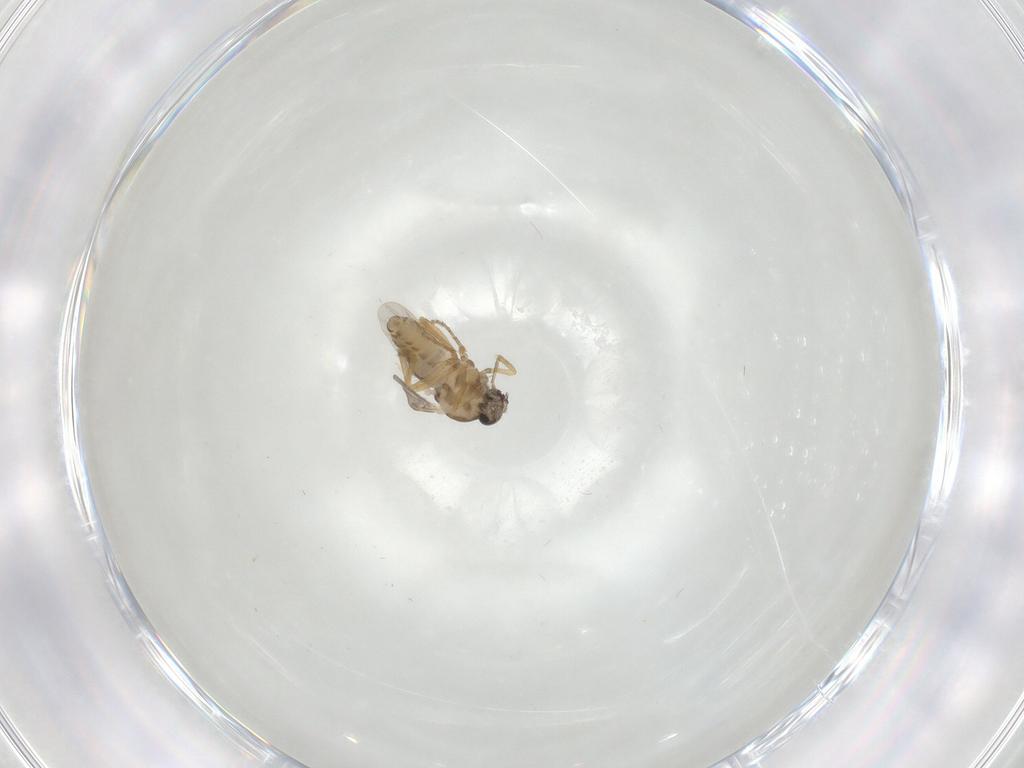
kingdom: Animalia
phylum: Arthropoda
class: Insecta
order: Diptera
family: Ceratopogonidae
